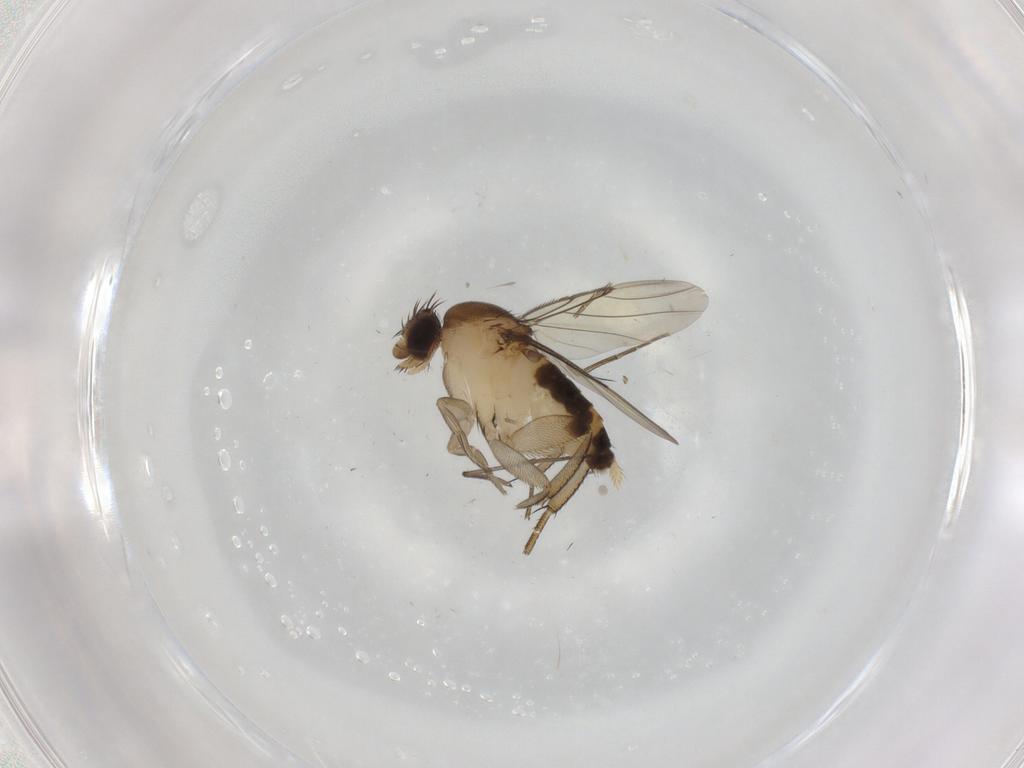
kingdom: Animalia
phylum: Arthropoda
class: Insecta
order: Diptera
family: Phoridae
